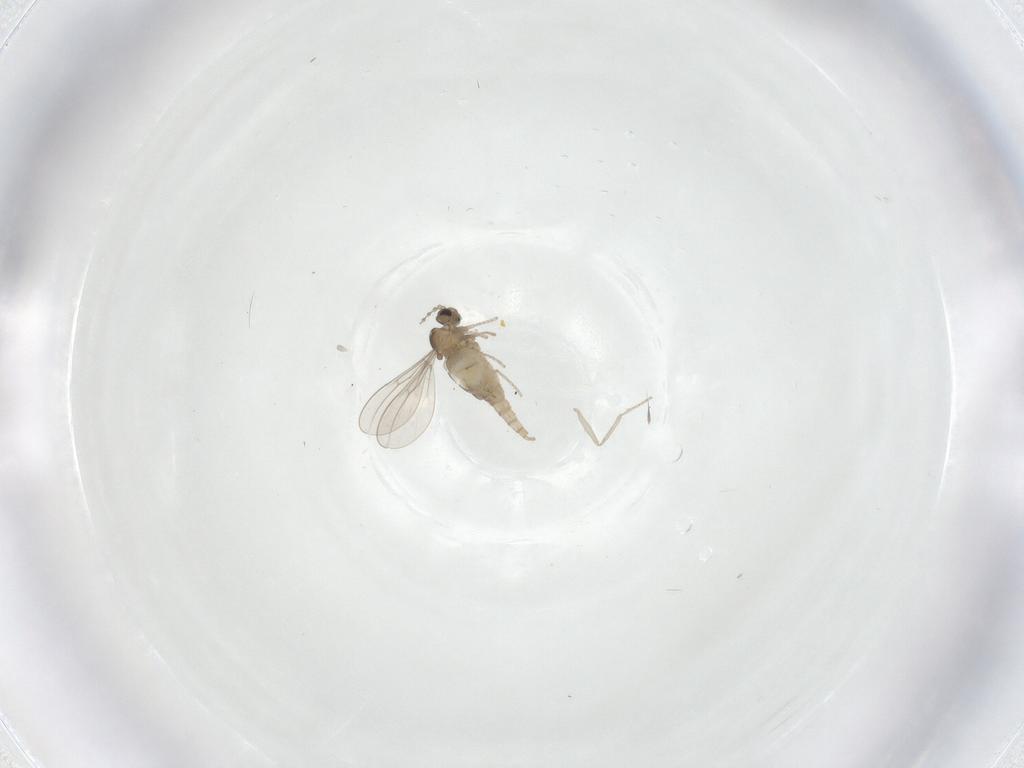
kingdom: Animalia
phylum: Arthropoda
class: Insecta
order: Diptera
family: Cecidomyiidae
